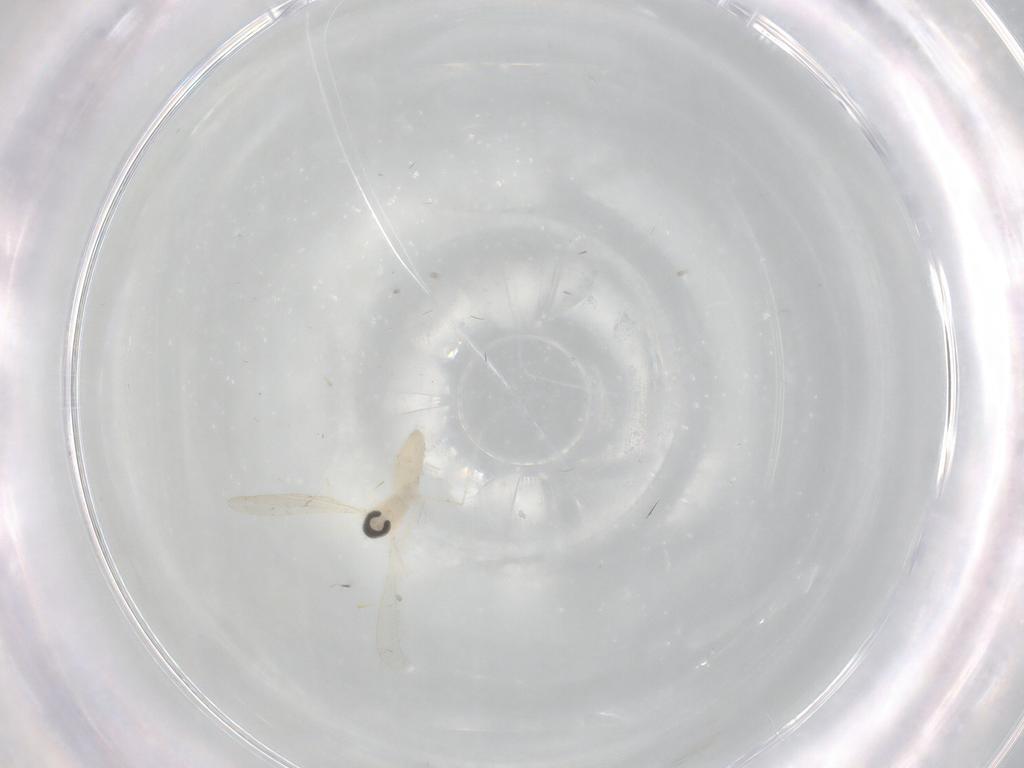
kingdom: Animalia
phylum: Arthropoda
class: Insecta
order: Diptera
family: Cecidomyiidae
